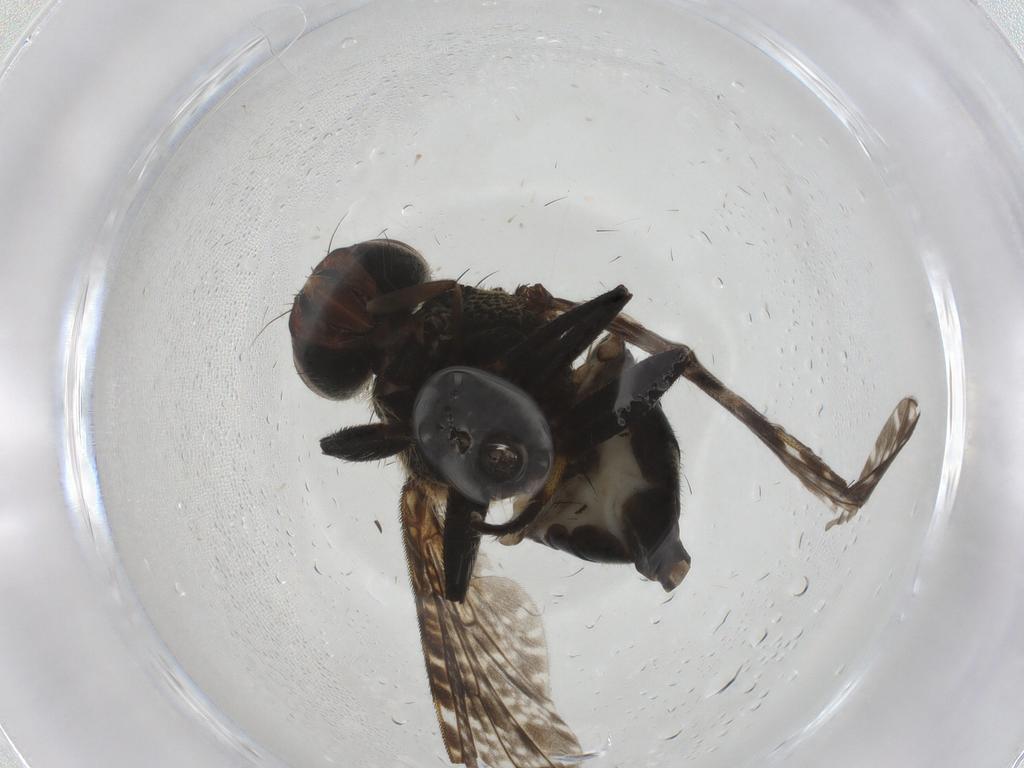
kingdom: Animalia
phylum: Arthropoda
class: Insecta
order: Diptera
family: Platystomatidae
